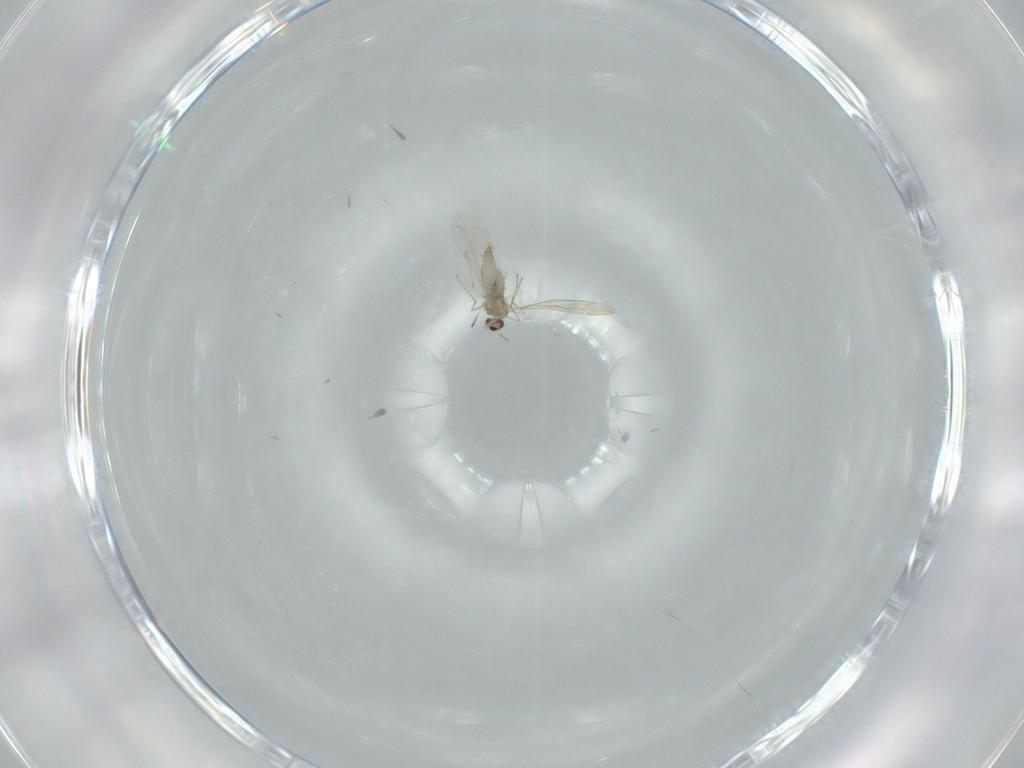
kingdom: Animalia
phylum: Arthropoda
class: Insecta
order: Diptera
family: Cecidomyiidae
